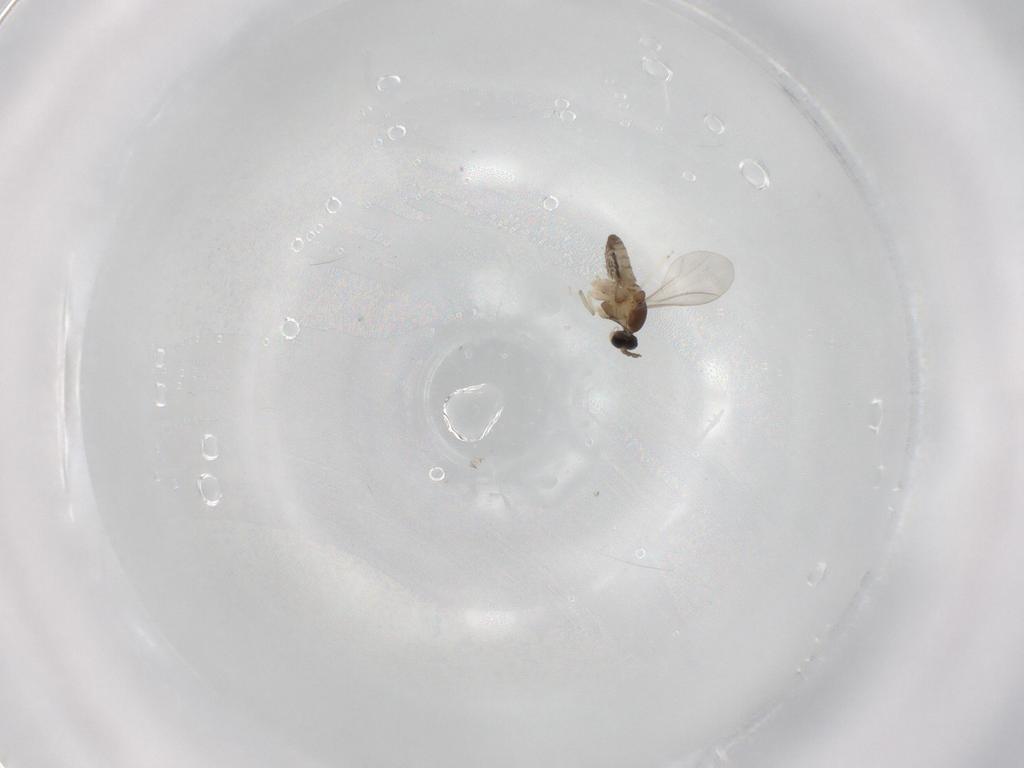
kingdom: Animalia
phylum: Arthropoda
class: Insecta
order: Diptera
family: Cecidomyiidae
